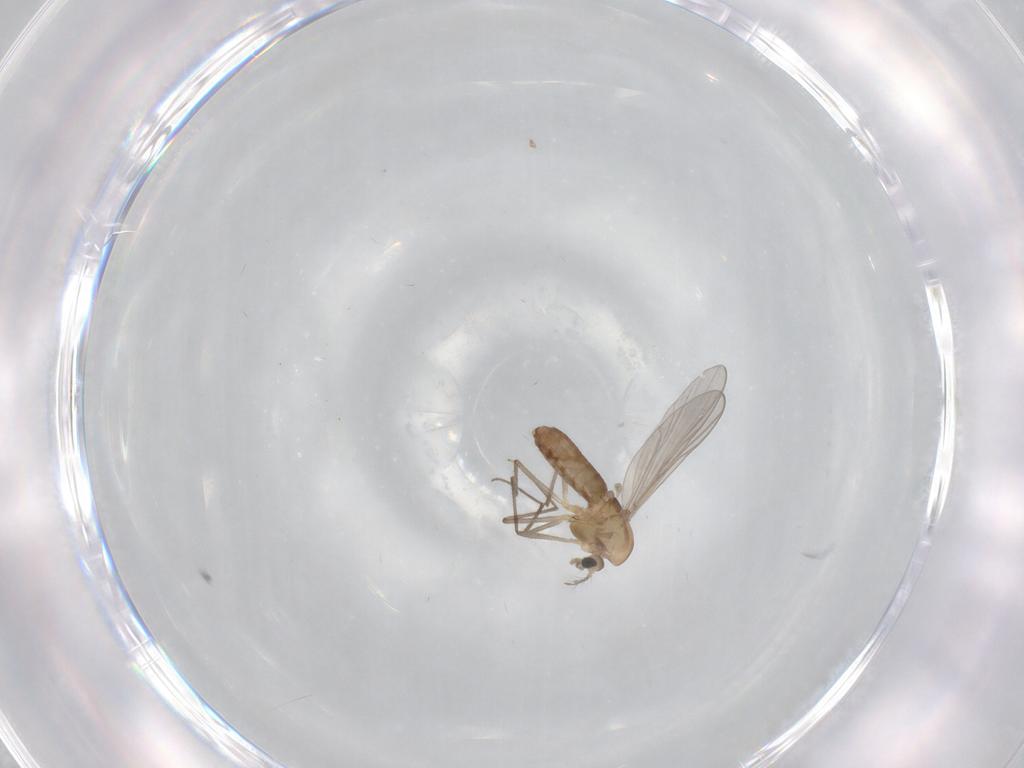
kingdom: Animalia
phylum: Arthropoda
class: Insecta
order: Diptera
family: Chironomidae
